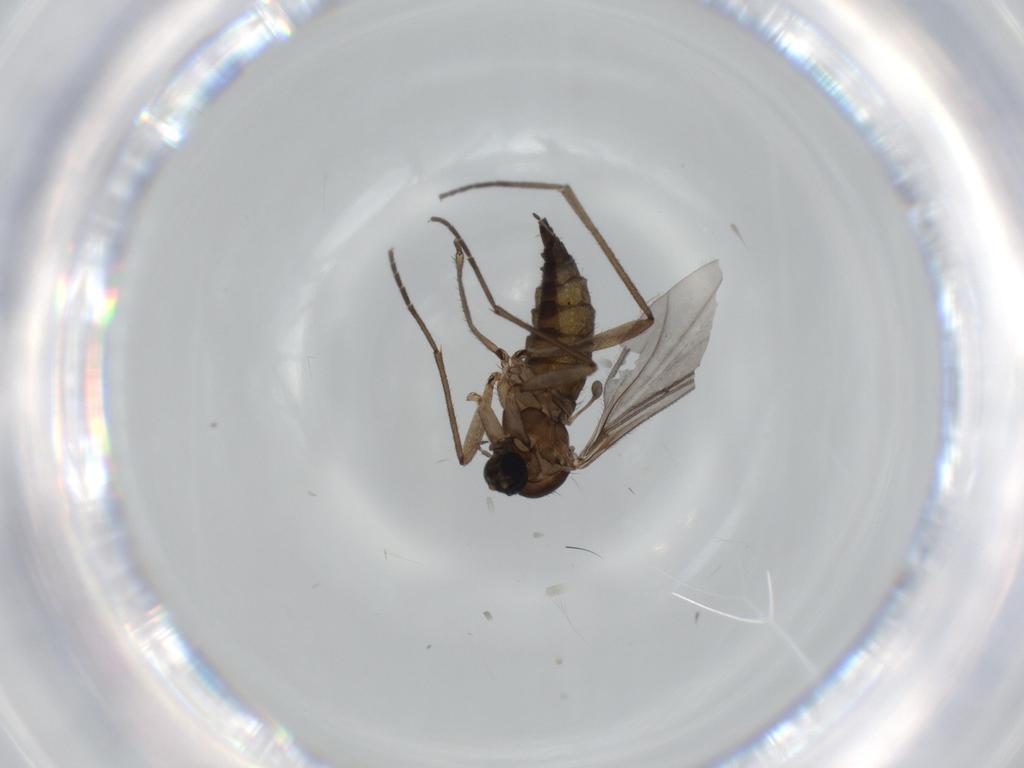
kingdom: Animalia
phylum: Arthropoda
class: Insecta
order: Diptera
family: Sciaridae
